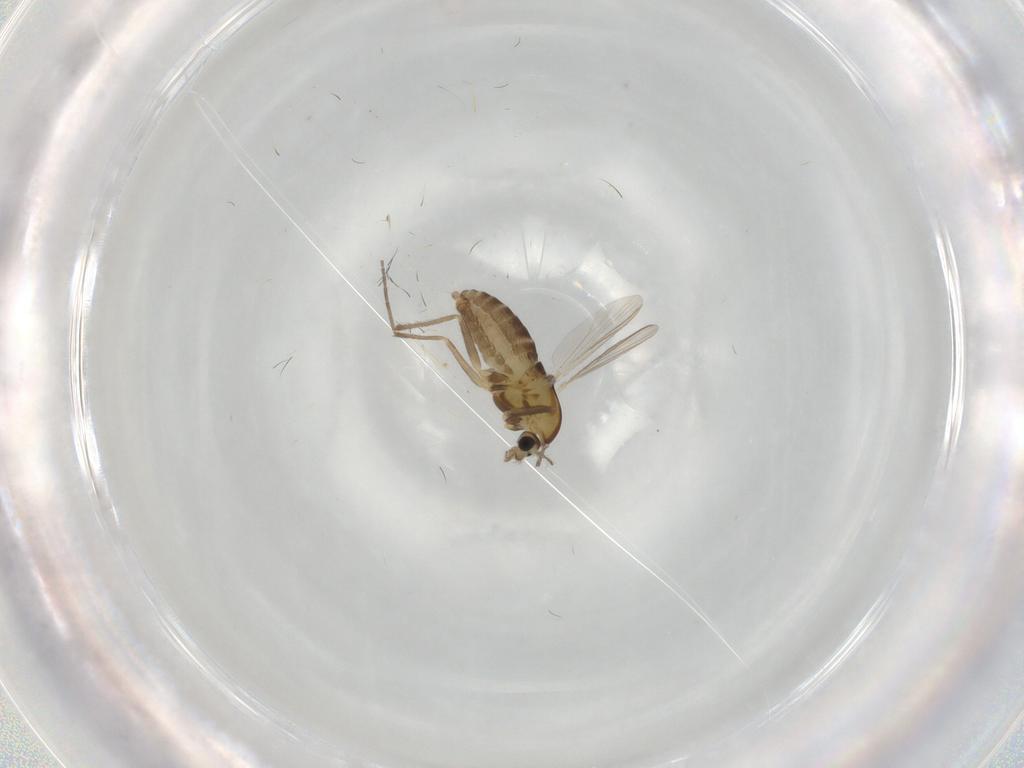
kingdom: Animalia
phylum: Arthropoda
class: Insecta
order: Diptera
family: Chironomidae
